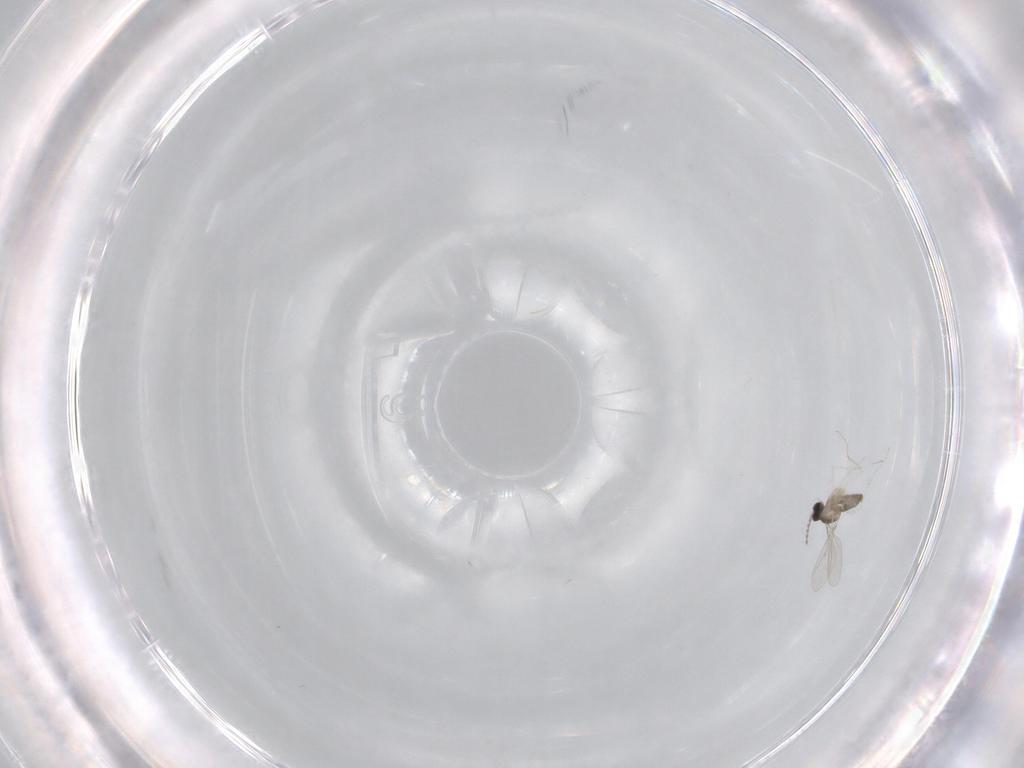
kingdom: Animalia
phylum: Arthropoda
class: Insecta
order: Diptera
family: Cecidomyiidae
